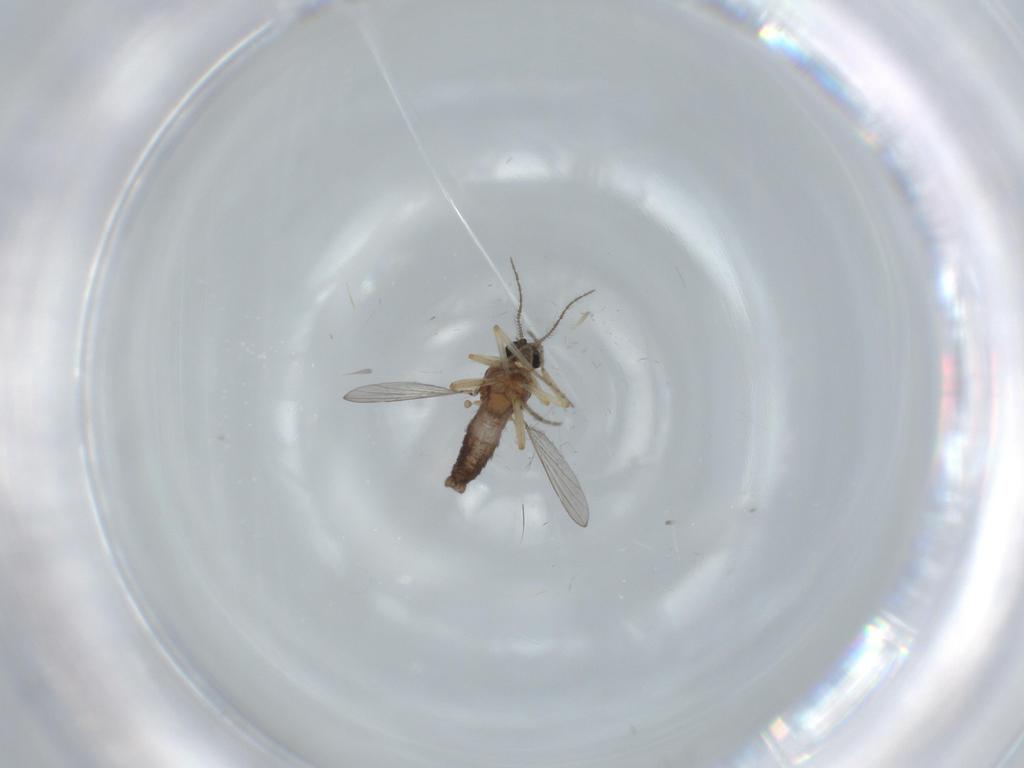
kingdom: Animalia
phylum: Arthropoda
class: Insecta
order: Diptera
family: Ceratopogonidae
